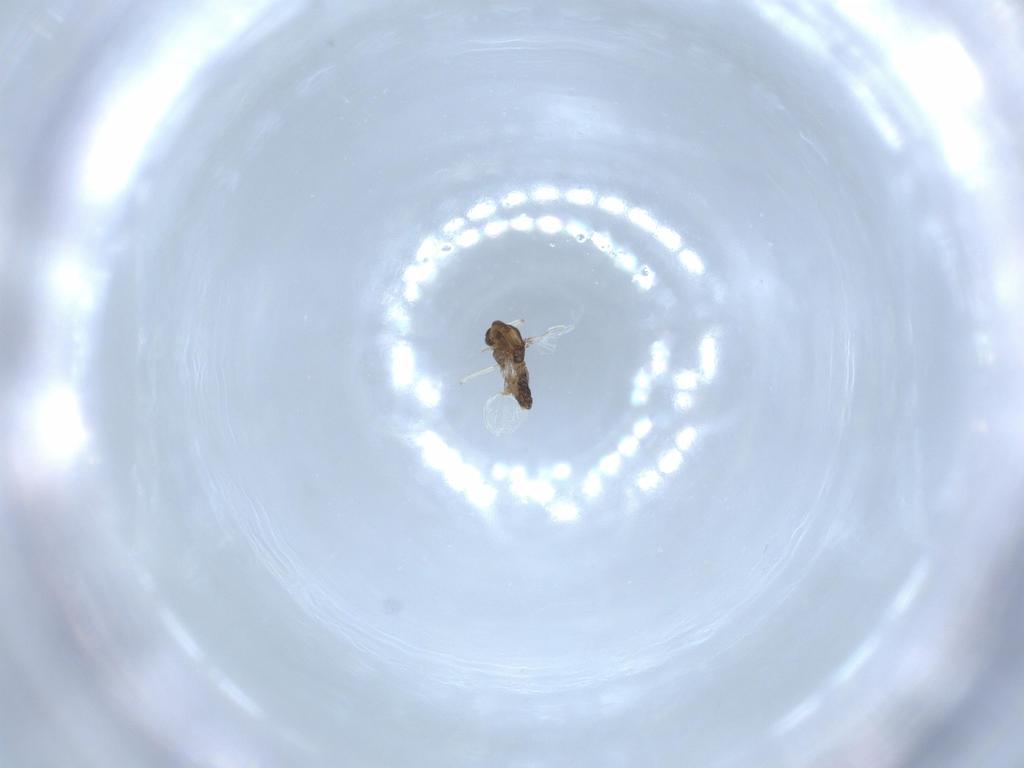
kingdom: Animalia
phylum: Arthropoda
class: Insecta
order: Diptera
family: Chironomidae
